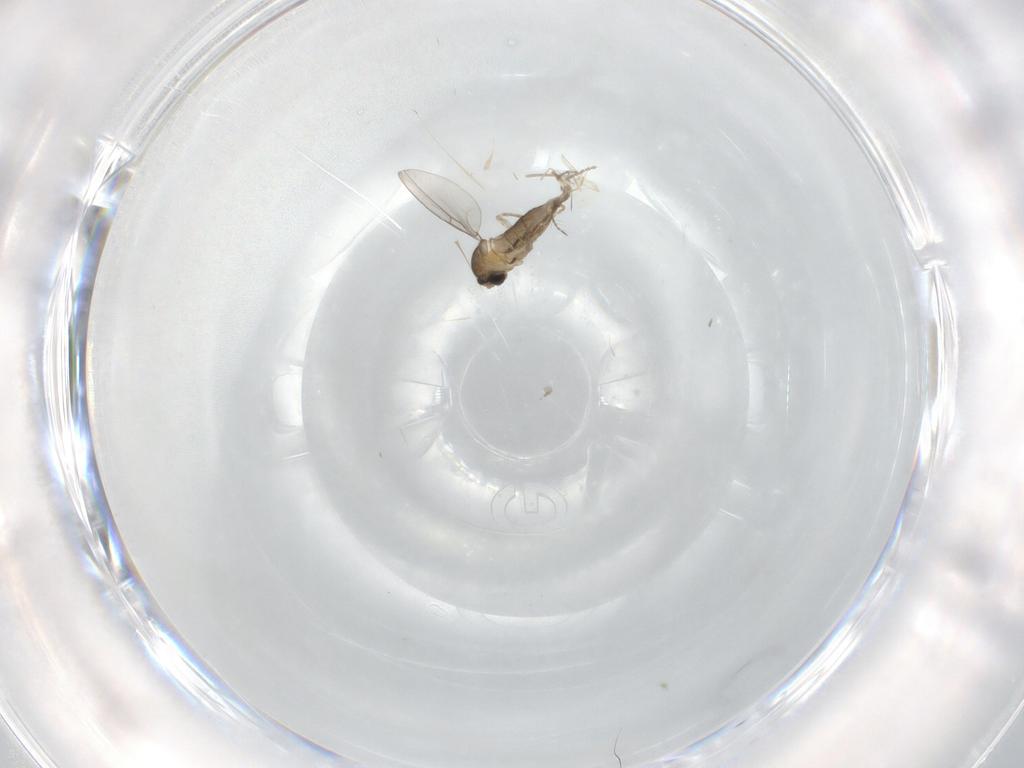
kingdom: Animalia
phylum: Arthropoda
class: Insecta
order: Diptera
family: Cecidomyiidae
